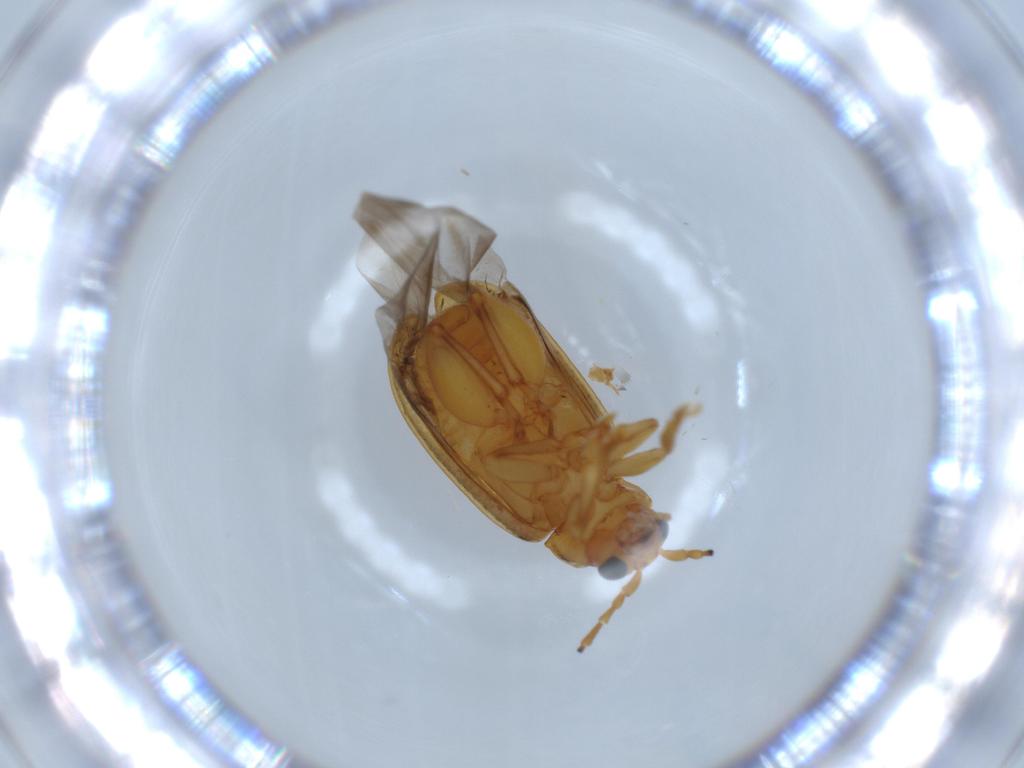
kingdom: Animalia
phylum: Arthropoda
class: Insecta
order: Coleoptera
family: Chrysomelidae
